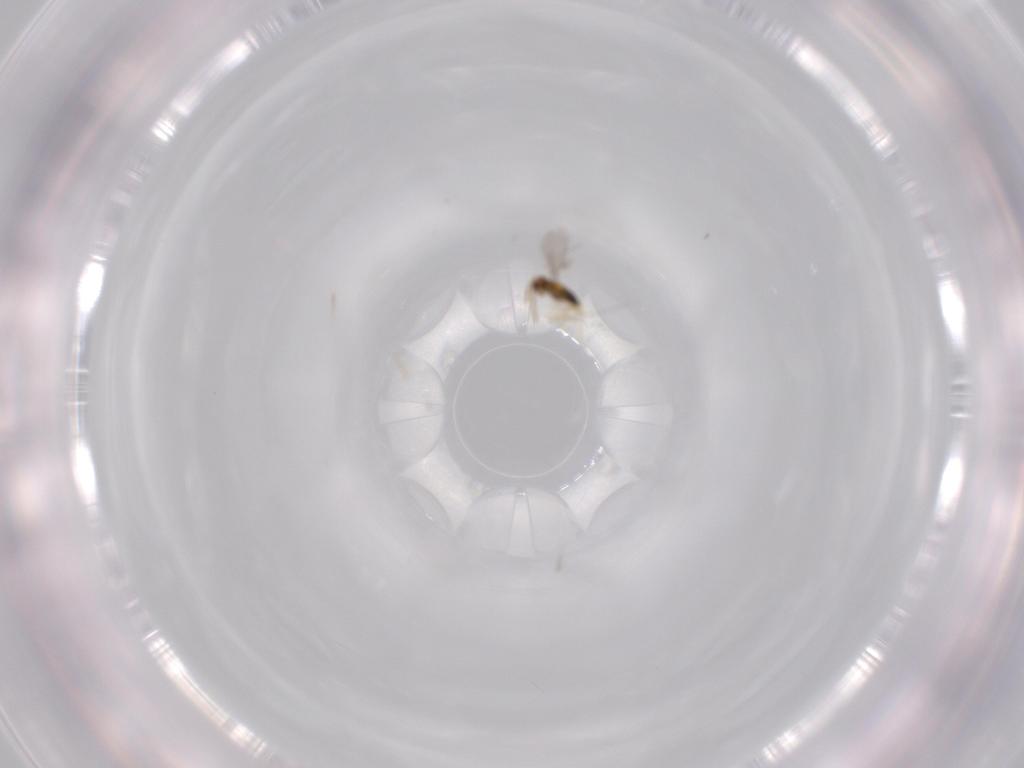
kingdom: Animalia
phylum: Arthropoda
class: Insecta
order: Hymenoptera
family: Aphelinidae
